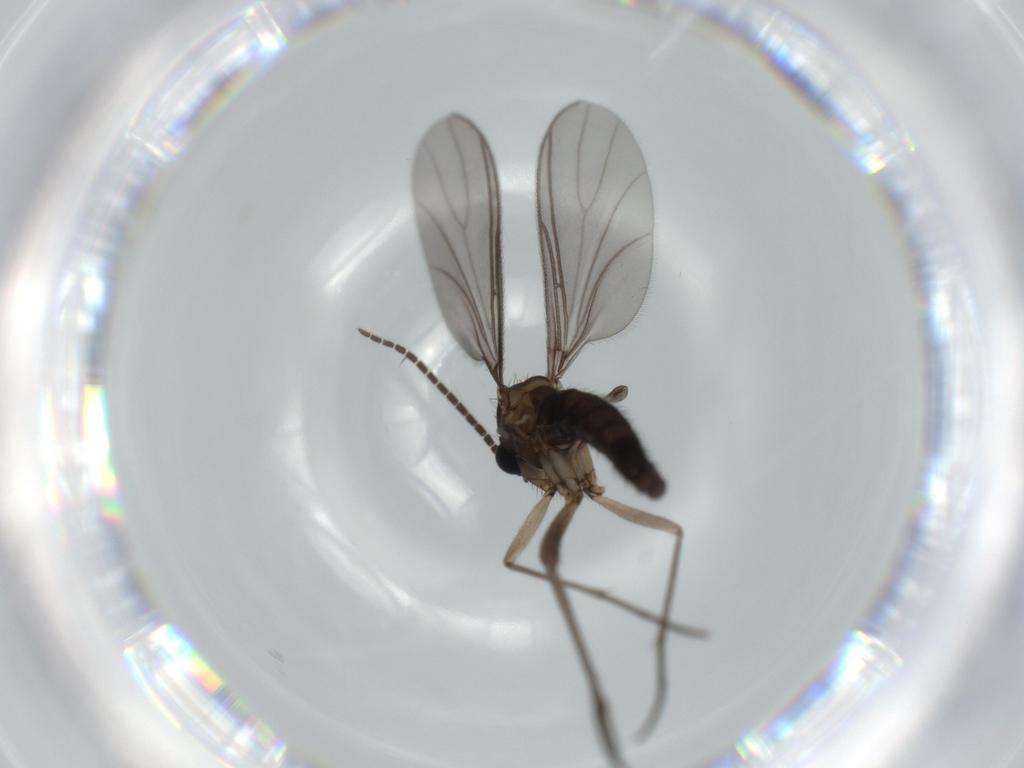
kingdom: Animalia
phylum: Arthropoda
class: Insecta
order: Diptera
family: Sciaridae
